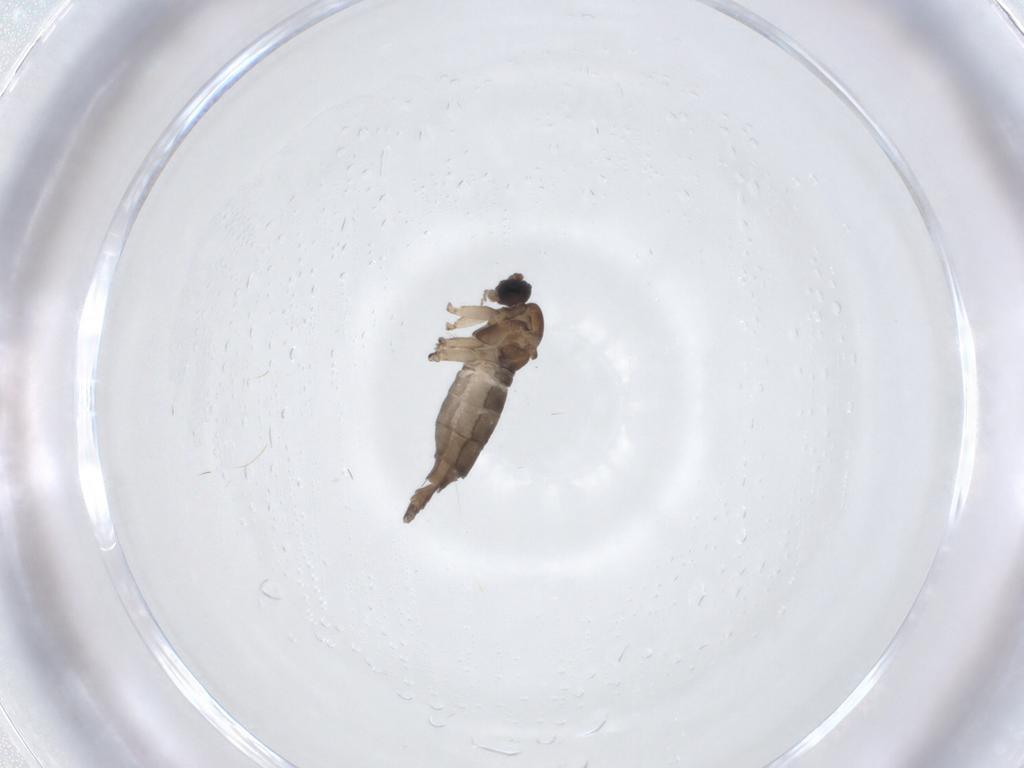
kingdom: Animalia
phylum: Arthropoda
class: Insecta
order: Diptera
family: Sciaridae
